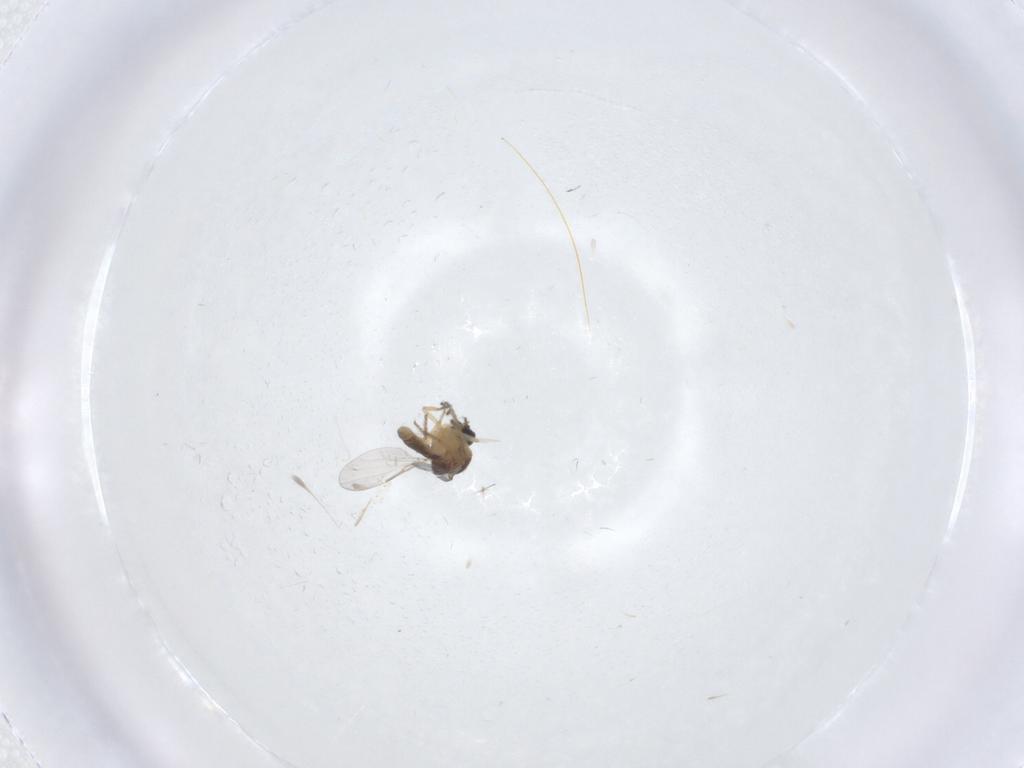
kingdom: Animalia
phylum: Arthropoda
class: Insecta
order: Diptera
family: Ceratopogonidae
